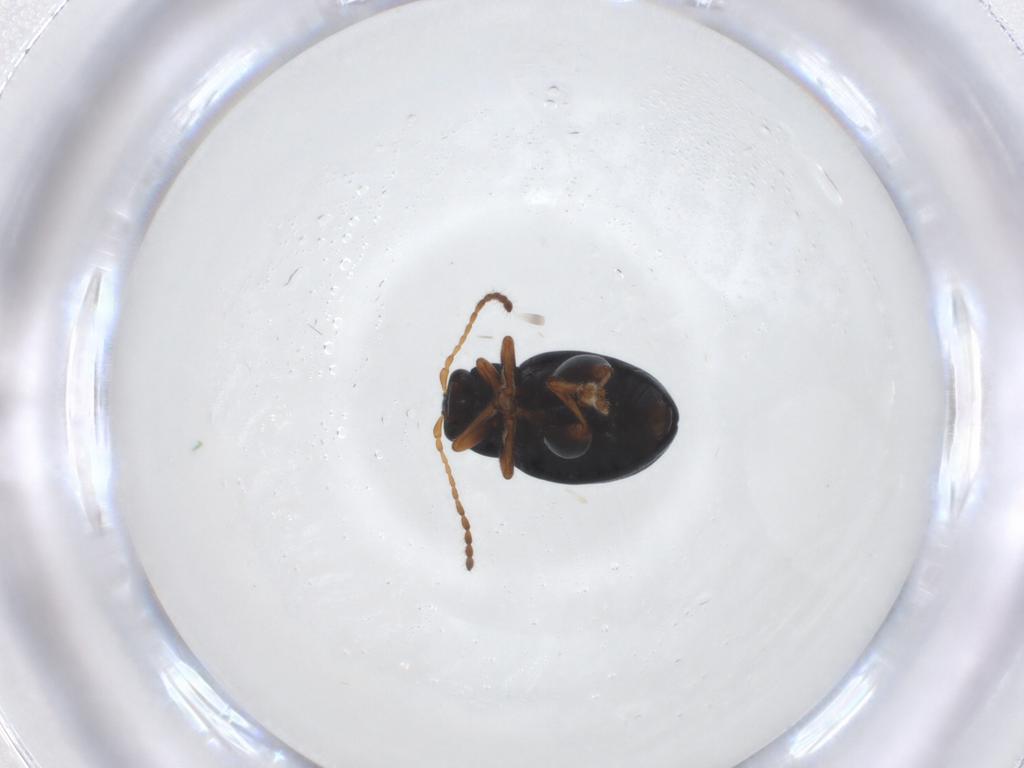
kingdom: Animalia
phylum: Arthropoda
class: Insecta
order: Coleoptera
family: Chrysomelidae
